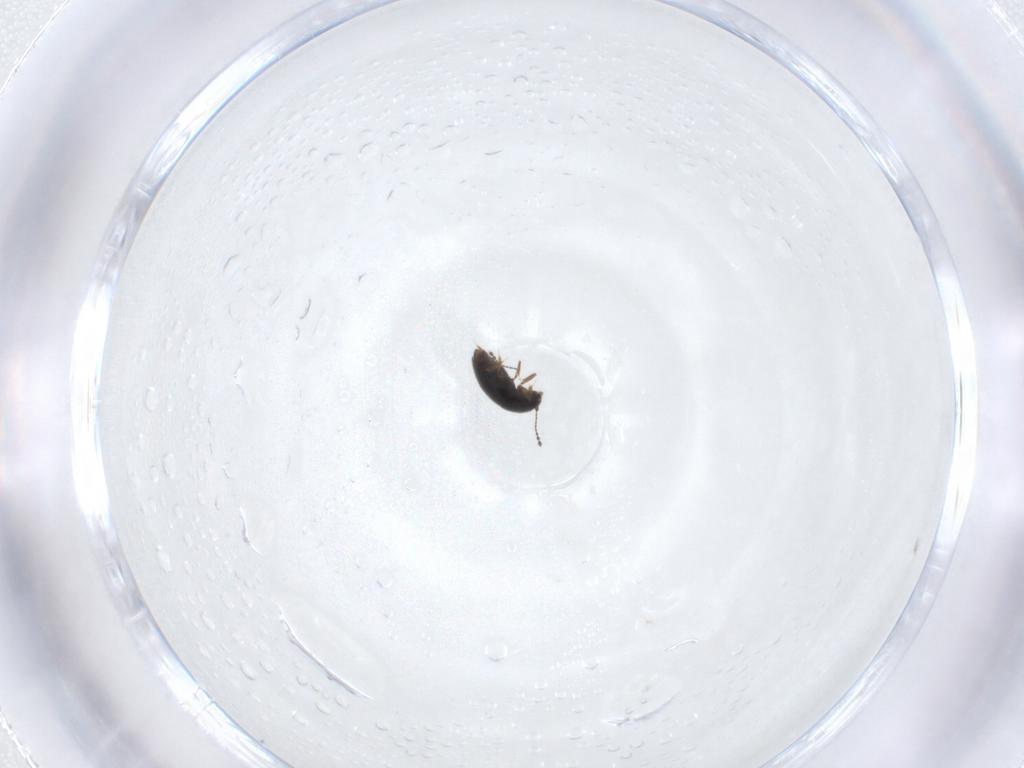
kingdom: Animalia
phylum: Arthropoda
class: Insecta
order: Coleoptera
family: Ptiliidae
